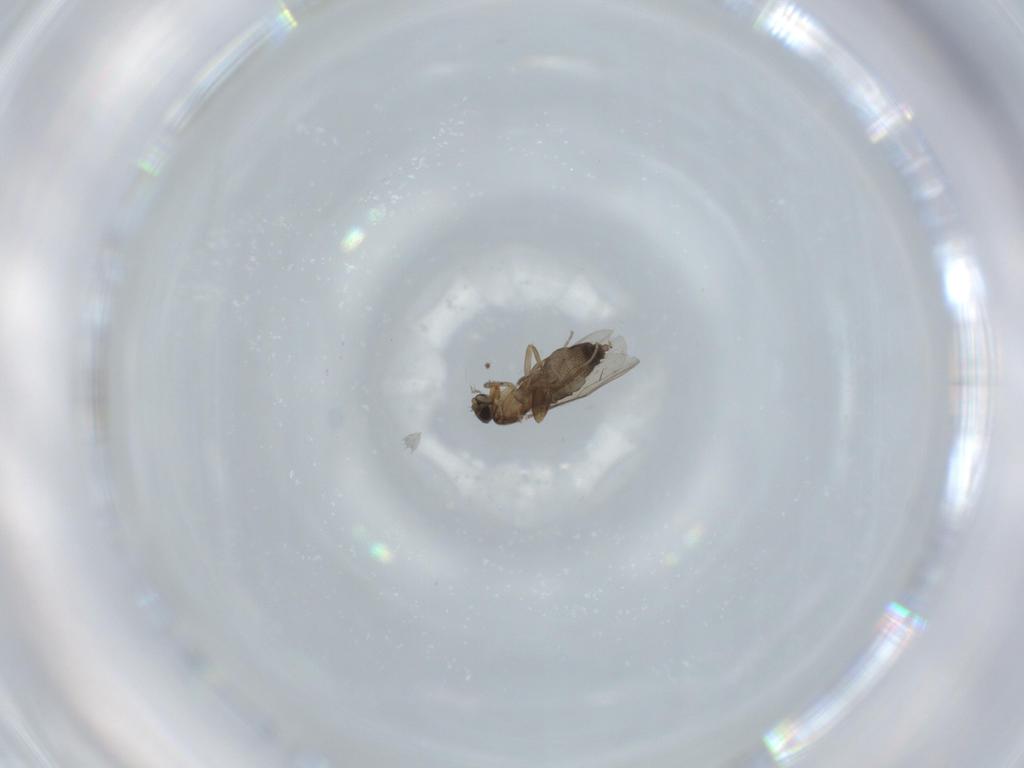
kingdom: Animalia
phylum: Arthropoda
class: Insecta
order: Diptera
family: Phoridae
